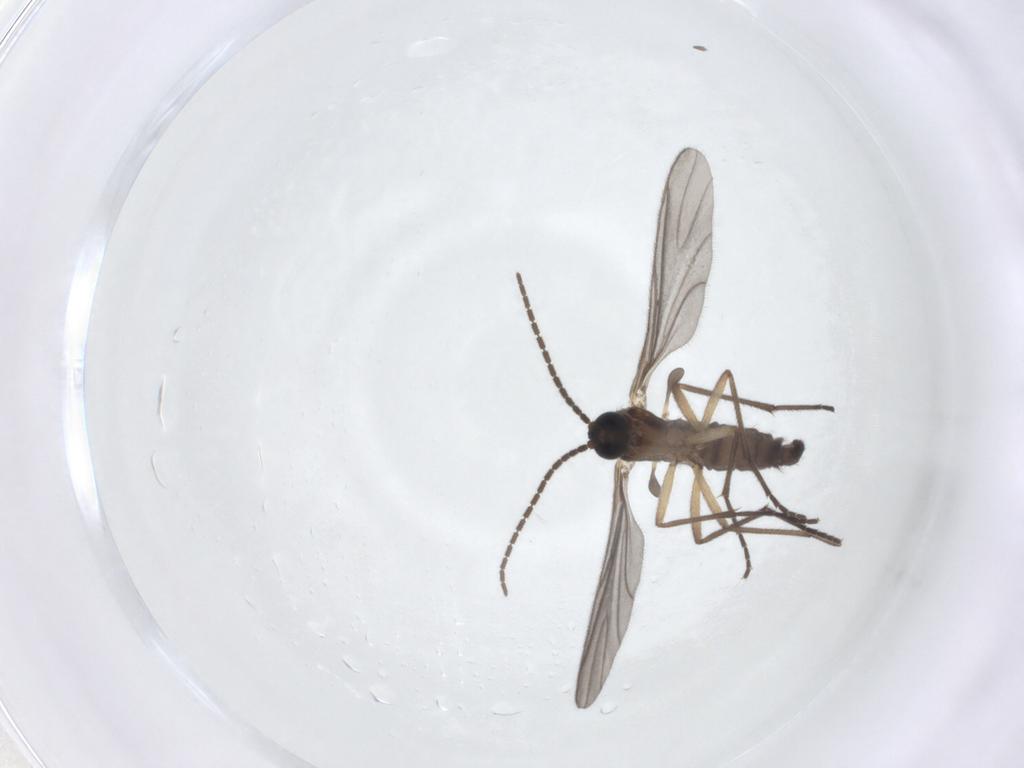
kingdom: Animalia
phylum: Arthropoda
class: Insecta
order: Diptera
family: Sciaridae
